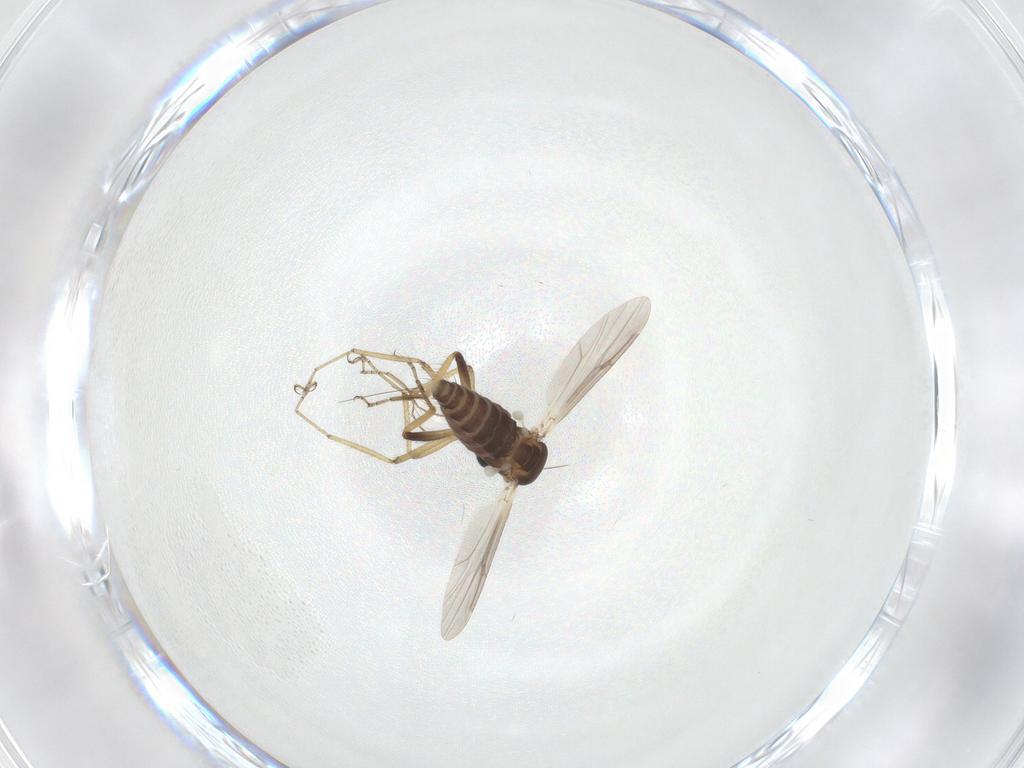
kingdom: Animalia
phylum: Arthropoda
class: Insecta
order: Diptera
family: Ceratopogonidae
